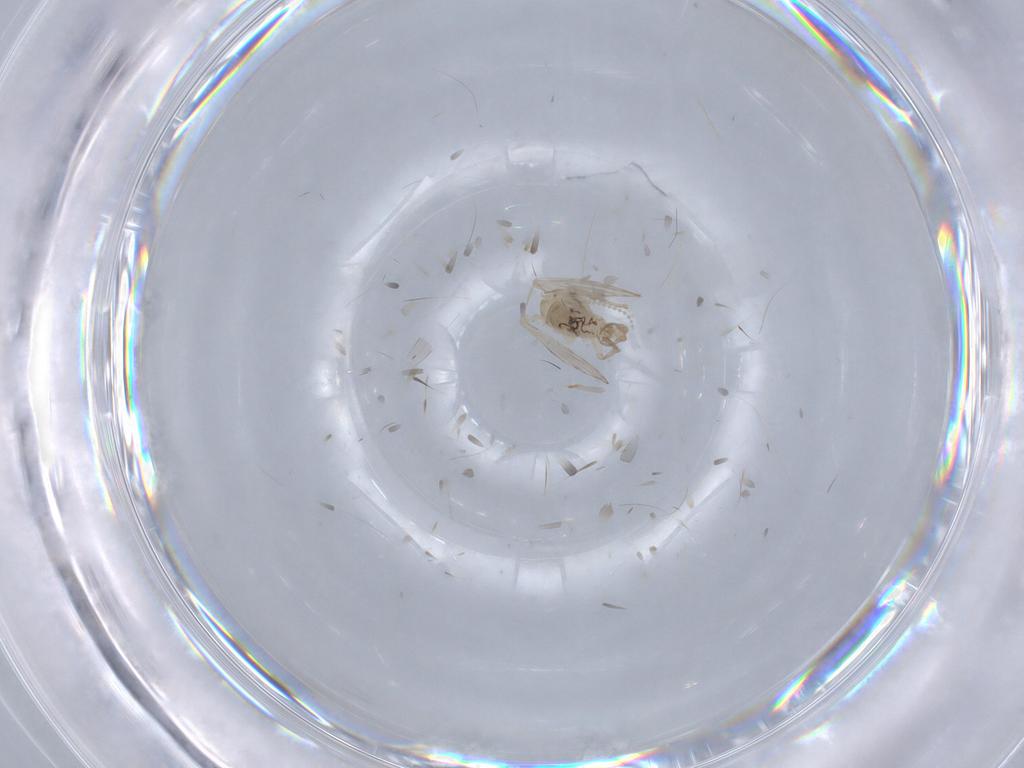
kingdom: Animalia
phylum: Arthropoda
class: Insecta
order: Diptera
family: Psychodidae
